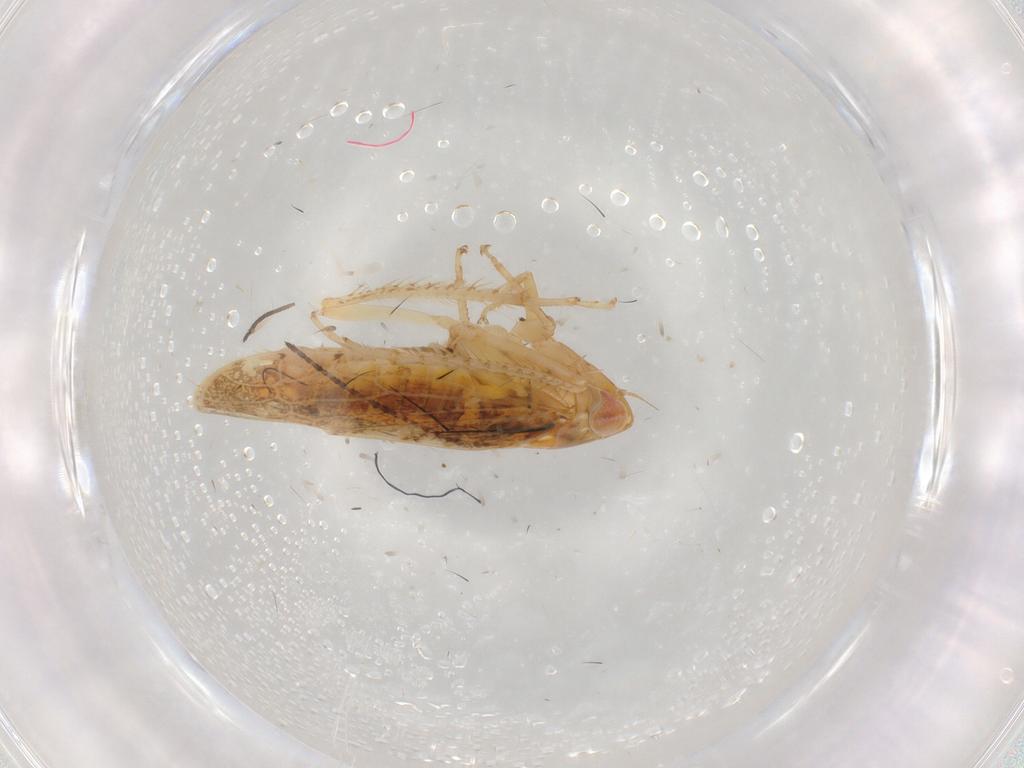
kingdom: Animalia
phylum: Arthropoda
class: Insecta
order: Hemiptera
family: Cicadellidae
